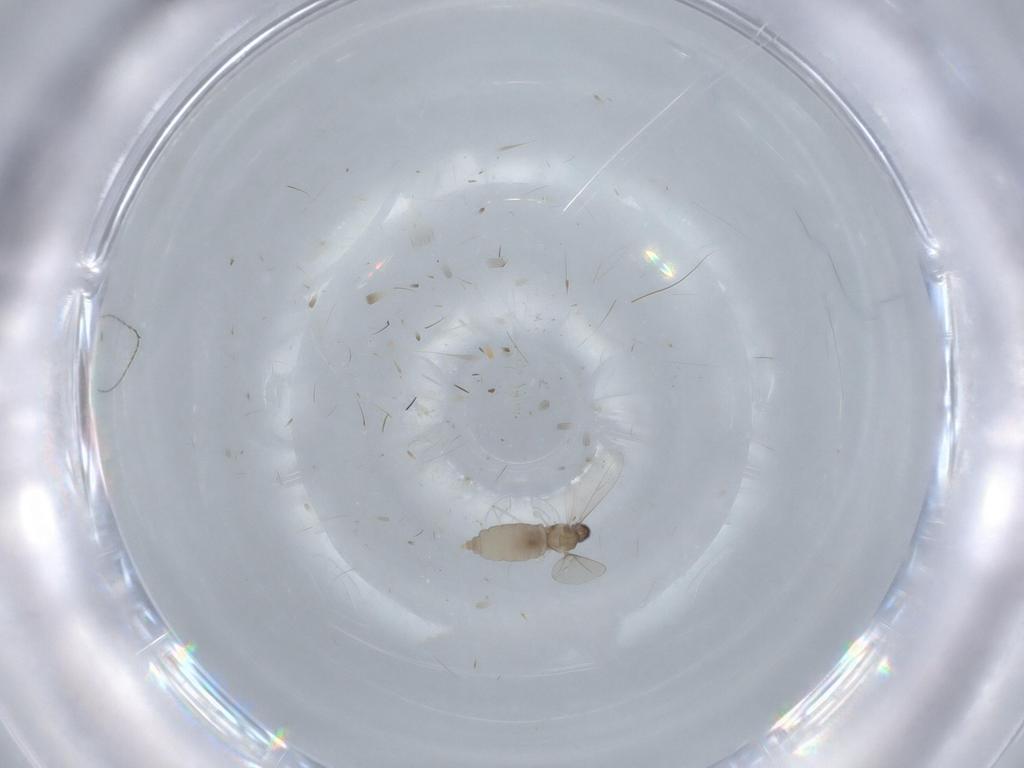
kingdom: Animalia
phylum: Arthropoda
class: Insecta
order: Diptera
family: Cecidomyiidae
